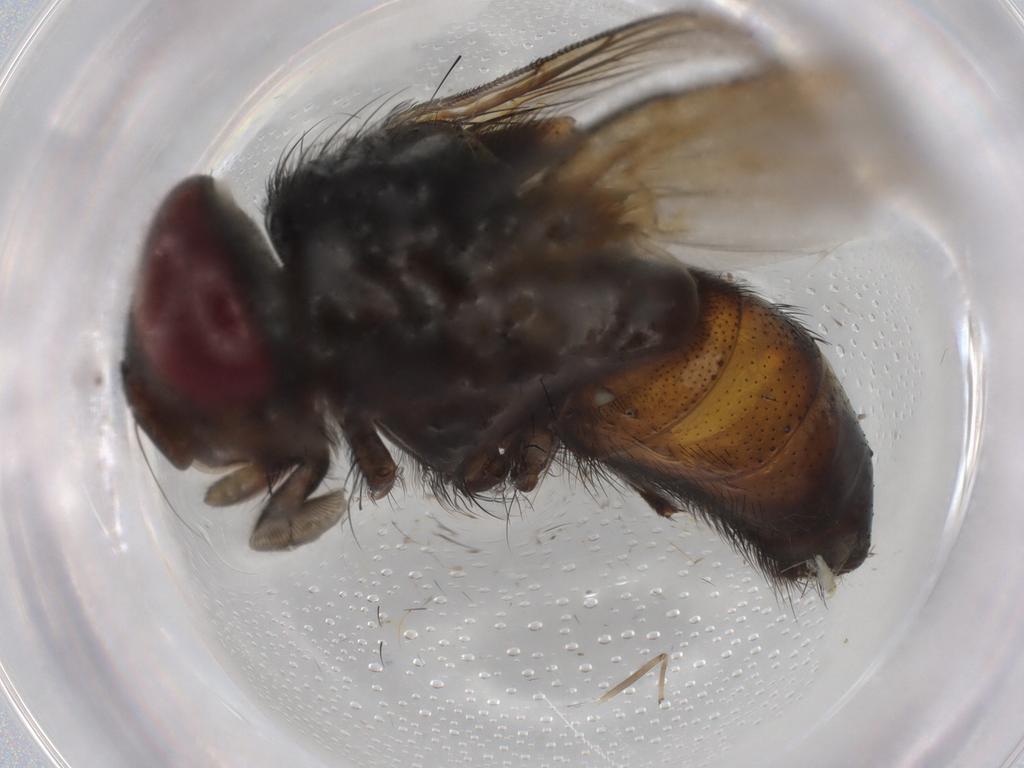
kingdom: Animalia
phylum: Arthropoda
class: Insecta
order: Diptera
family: Tachinidae
